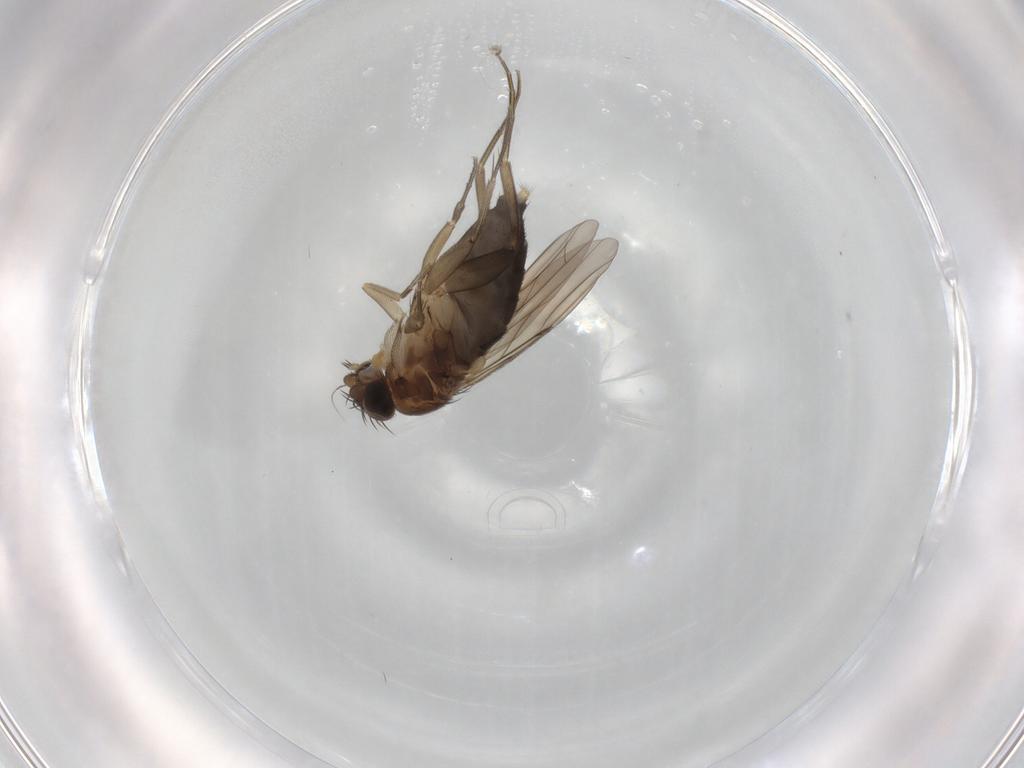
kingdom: Animalia
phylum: Arthropoda
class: Insecta
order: Diptera
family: Phoridae
